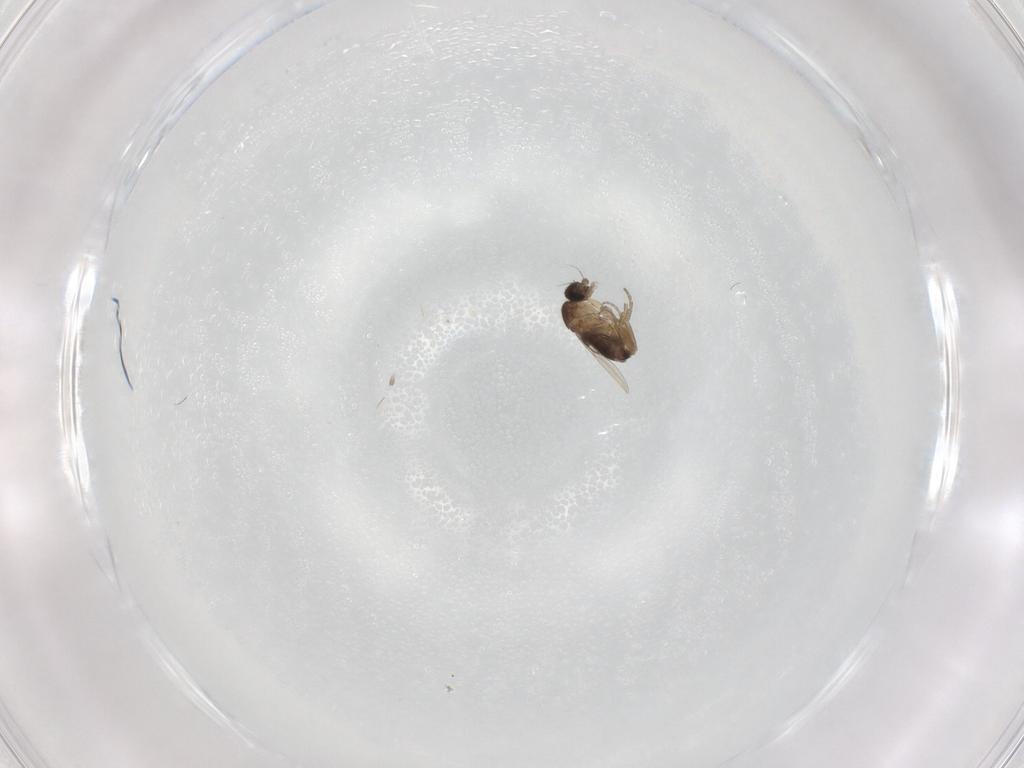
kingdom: Animalia
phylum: Arthropoda
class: Insecta
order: Diptera
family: Phoridae
